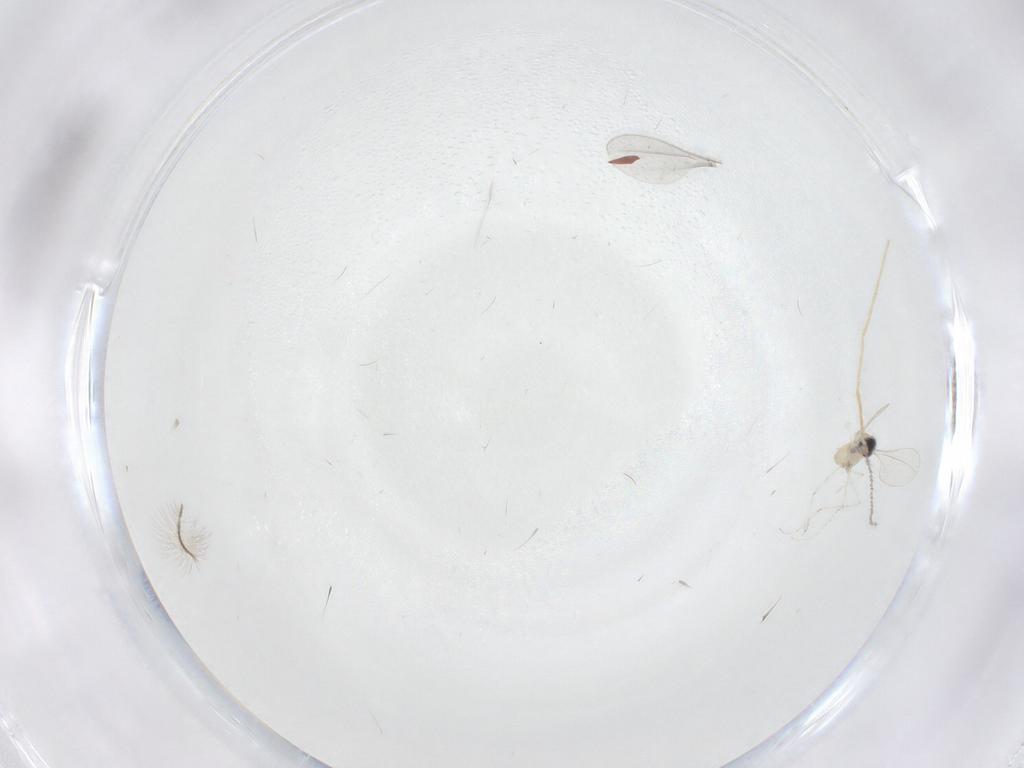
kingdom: Animalia
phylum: Arthropoda
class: Insecta
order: Diptera
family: Cecidomyiidae
